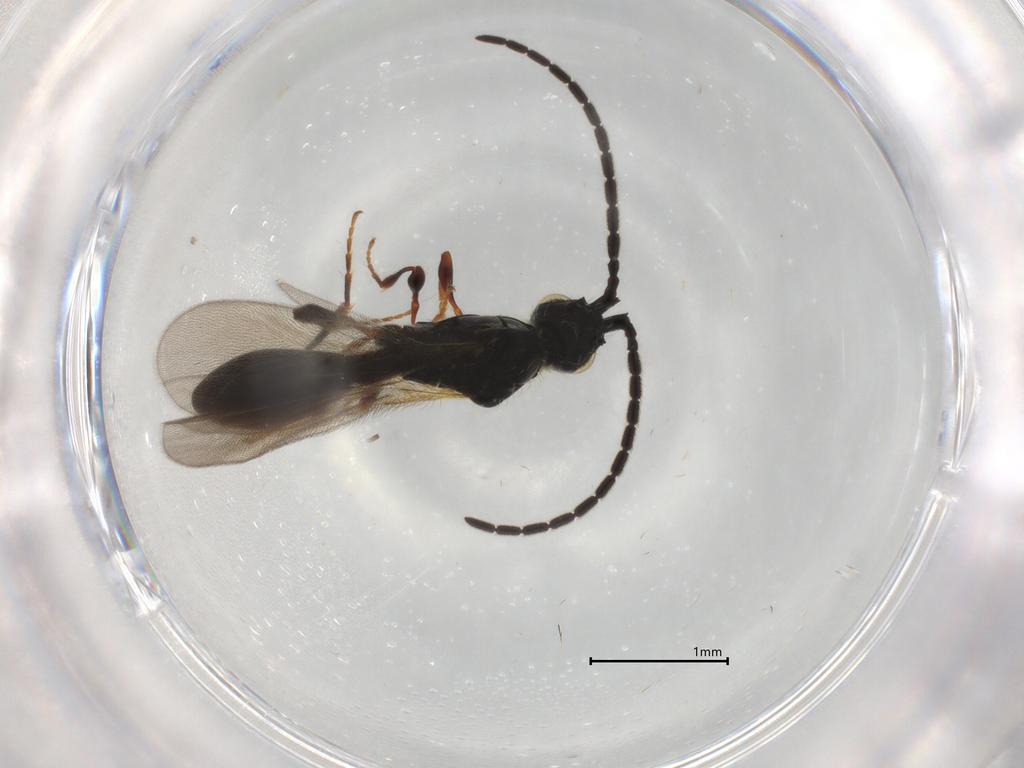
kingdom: Animalia
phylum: Arthropoda
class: Insecta
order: Hymenoptera
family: Diapriidae
